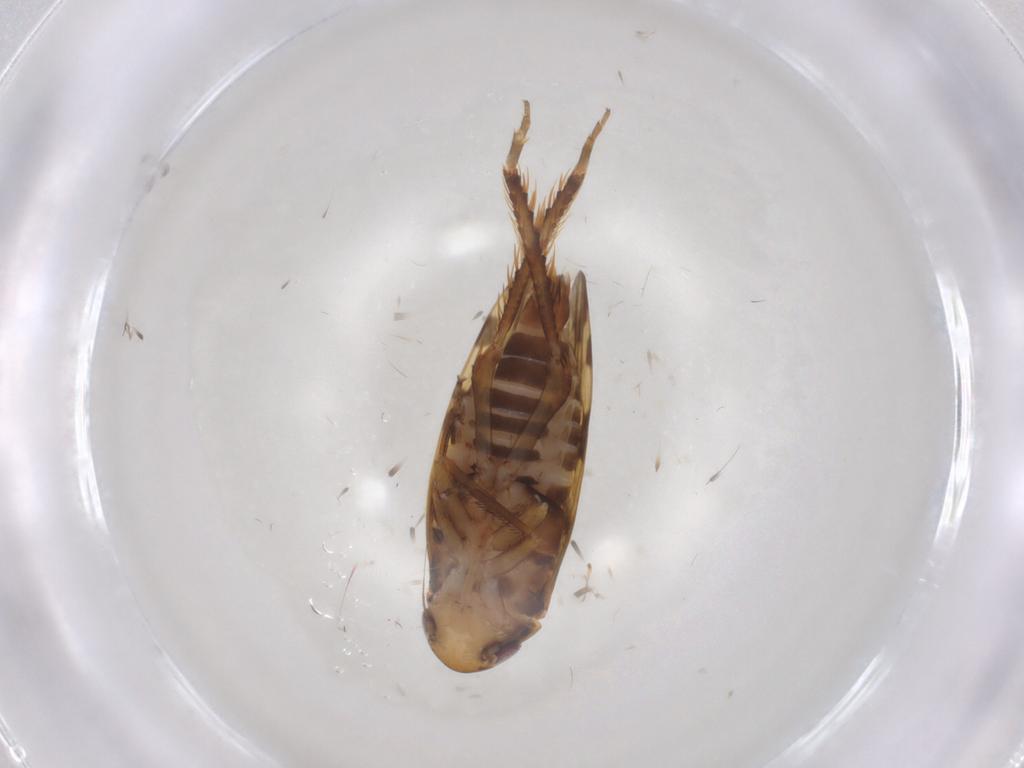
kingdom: Animalia
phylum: Arthropoda
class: Insecta
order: Hemiptera
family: Cicadellidae
